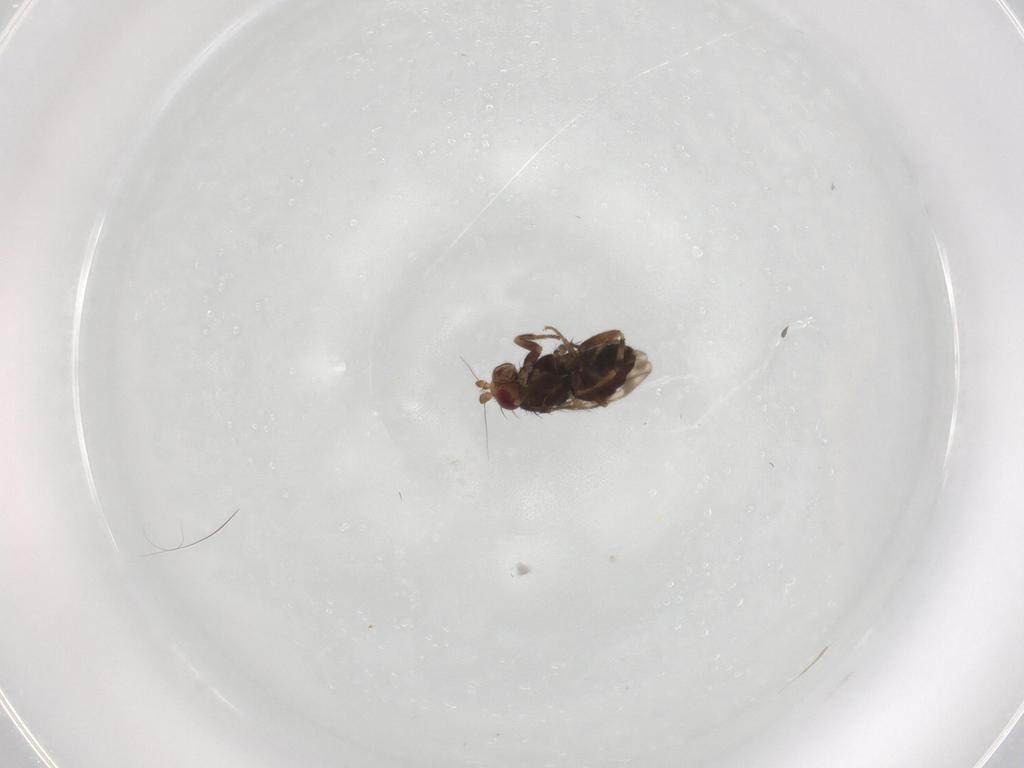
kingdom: Animalia
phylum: Arthropoda
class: Insecta
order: Diptera
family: Sphaeroceridae
